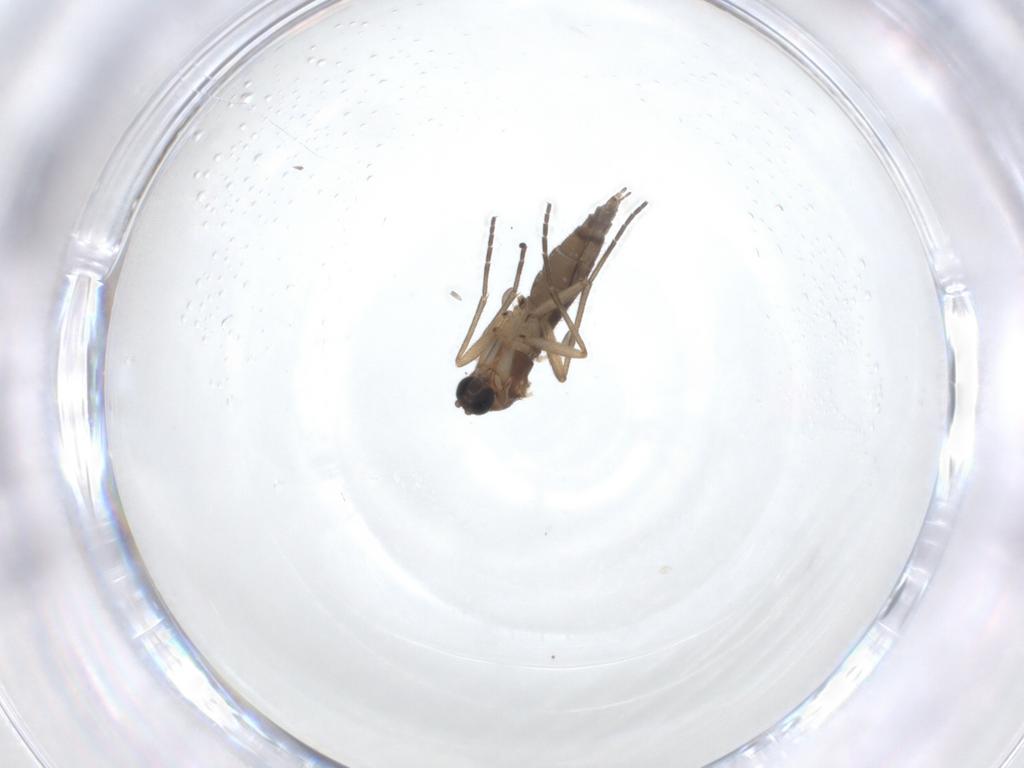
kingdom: Animalia
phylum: Arthropoda
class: Insecta
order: Diptera
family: Sciaridae
